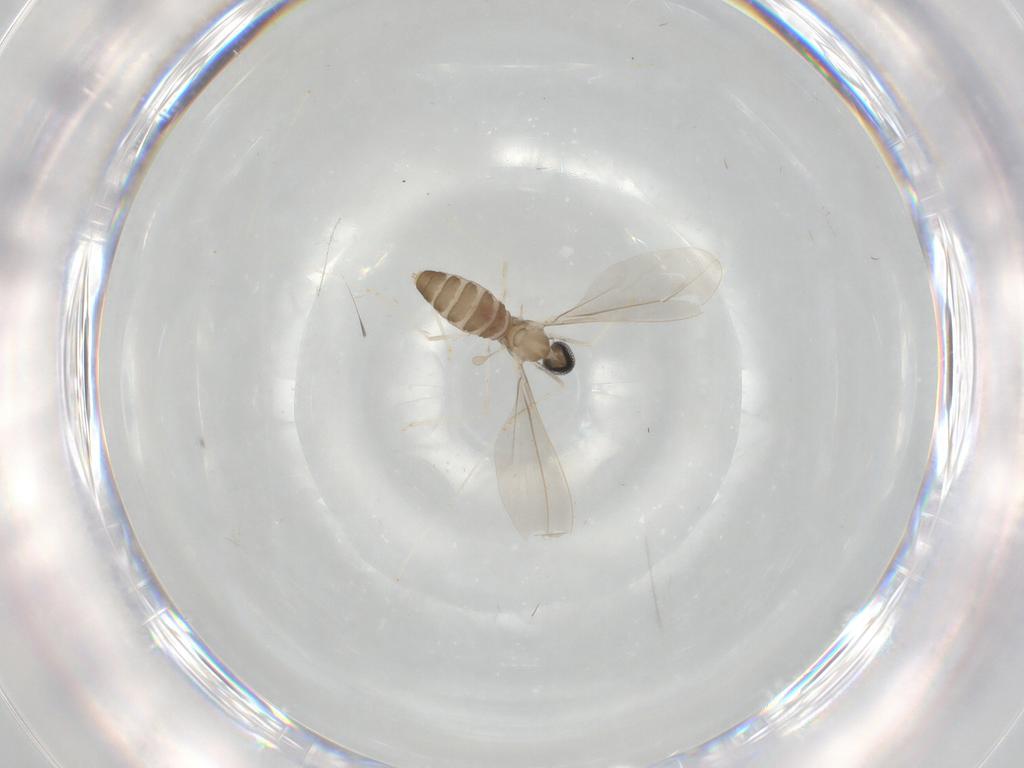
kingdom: Animalia
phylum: Arthropoda
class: Insecta
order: Diptera
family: Cecidomyiidae
